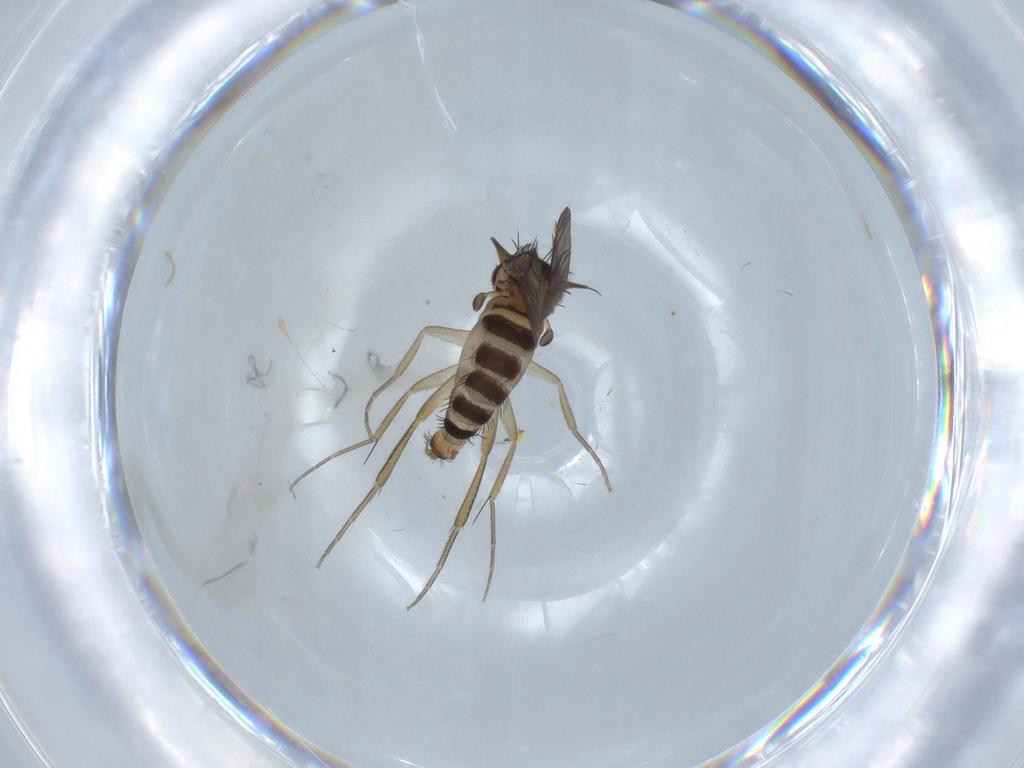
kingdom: Animalia
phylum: Arthropoda
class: Insecta
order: Diptera
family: Phoridae
